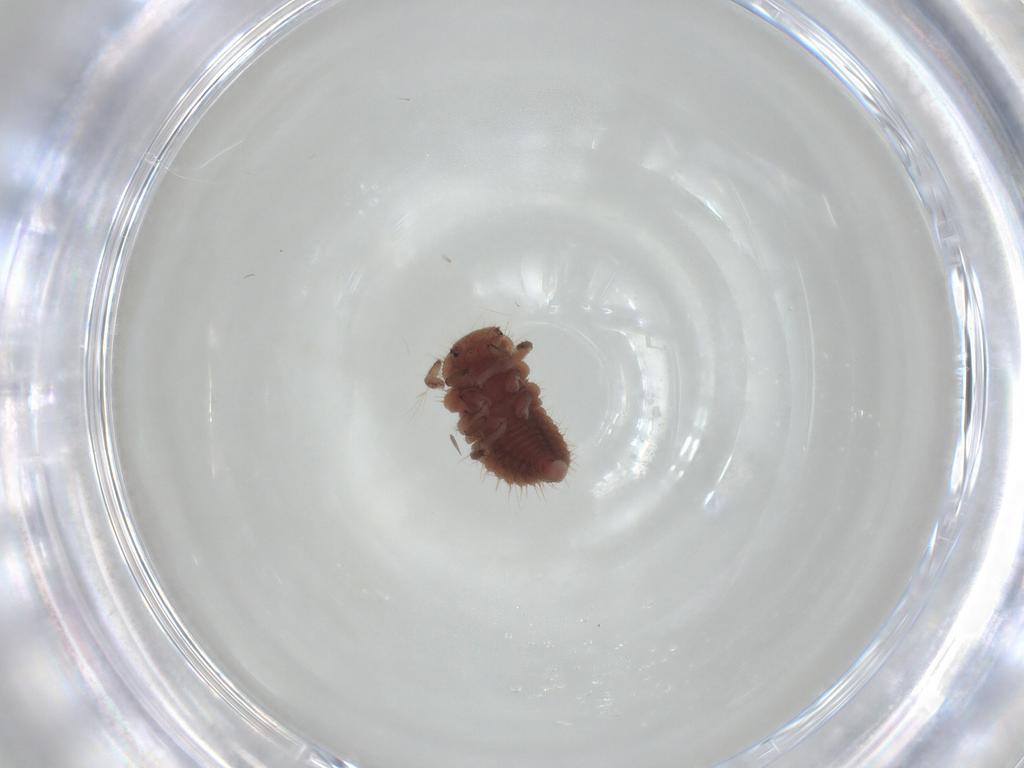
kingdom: Animalia
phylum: Arthropoda
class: Insecta
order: Coleoptera
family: Coccinellidae
